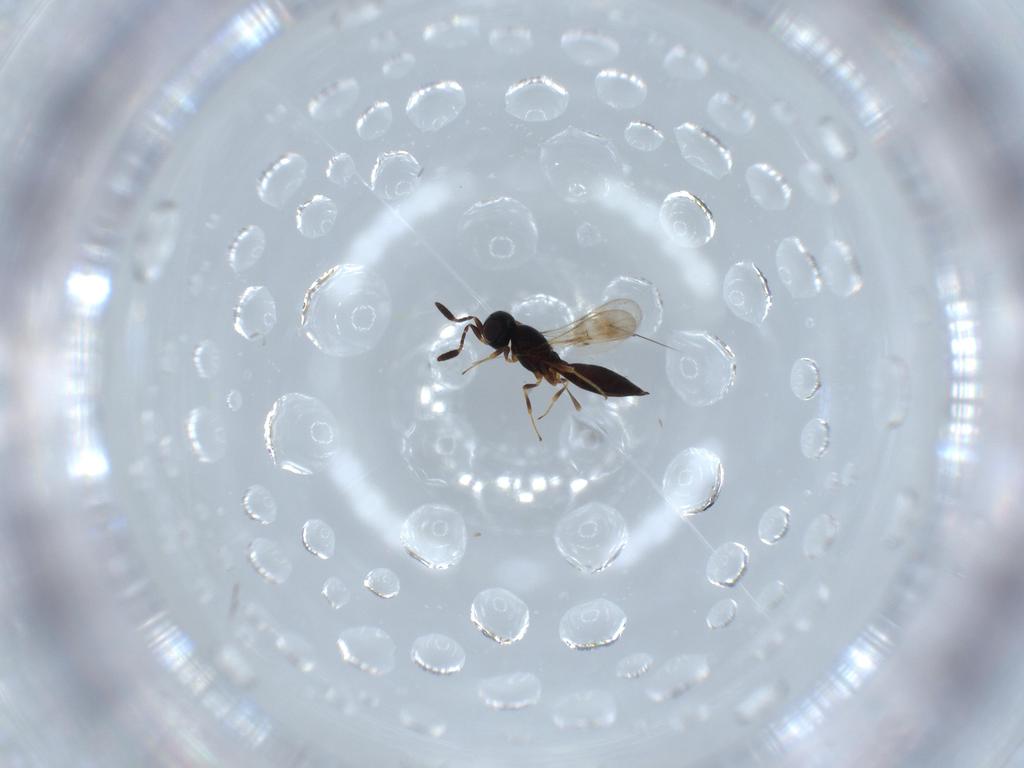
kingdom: Animalia
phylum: Arthropoda
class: Insecta
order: Hymenoptera
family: Diapriidae
